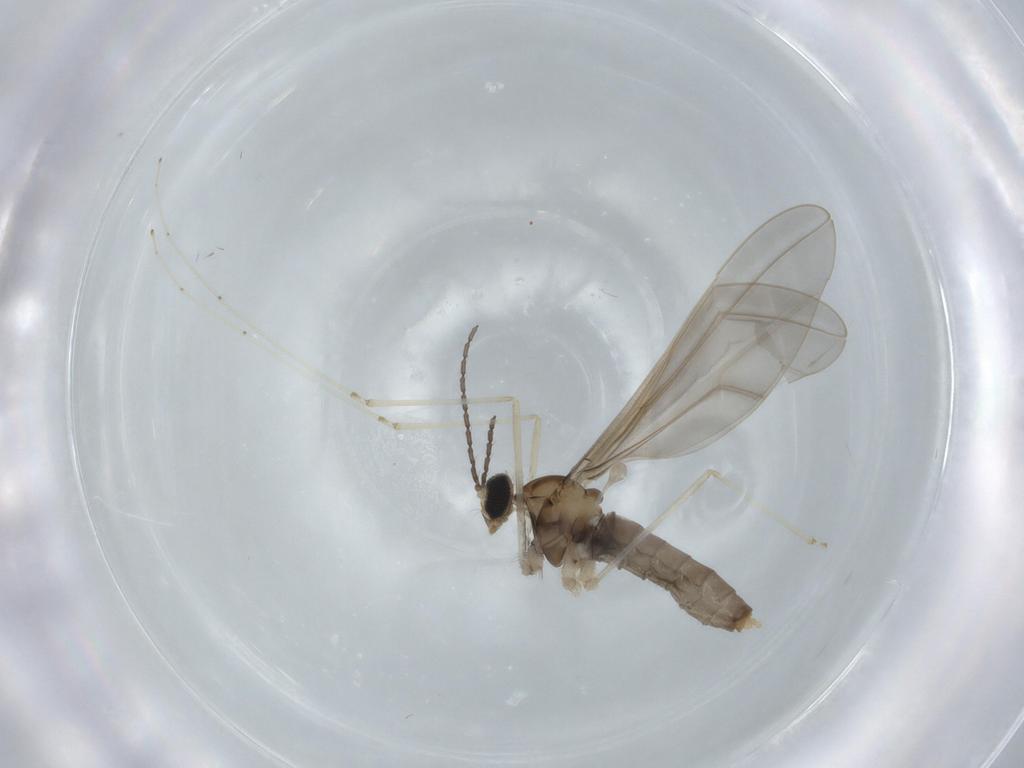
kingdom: Animalia
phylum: Arthropoda
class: Insecta
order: Diptera
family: Cecidomyiidae
